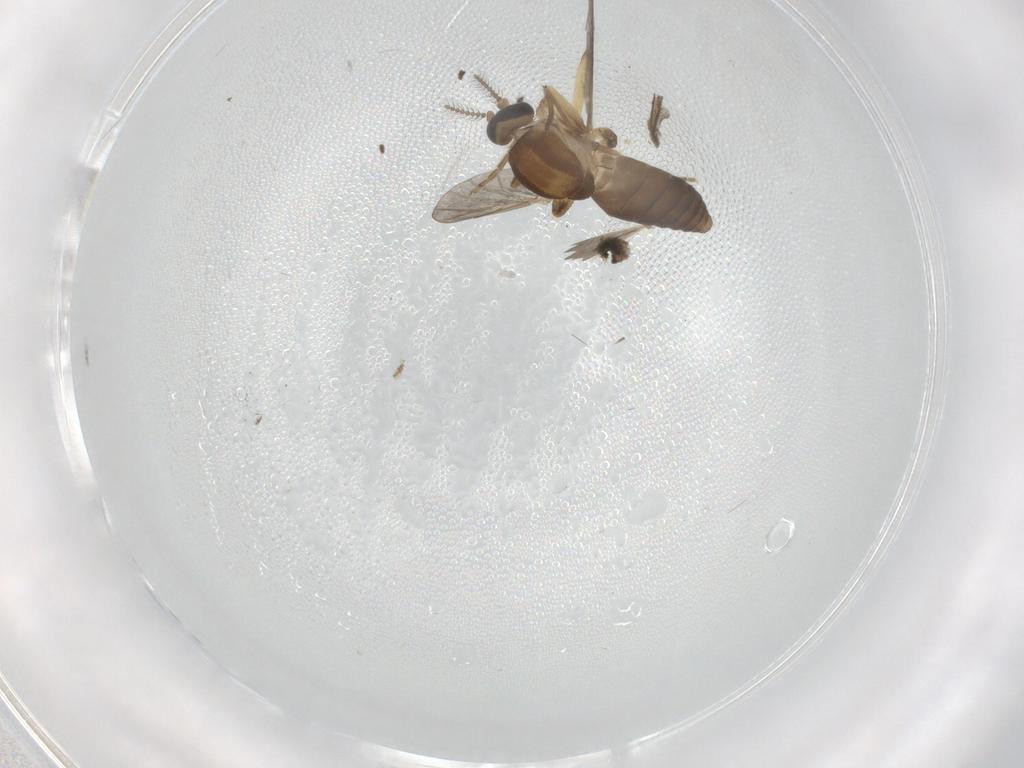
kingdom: Animalia
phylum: Arthropoda
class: Insecta
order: Diptera
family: Ceratopogonidae
